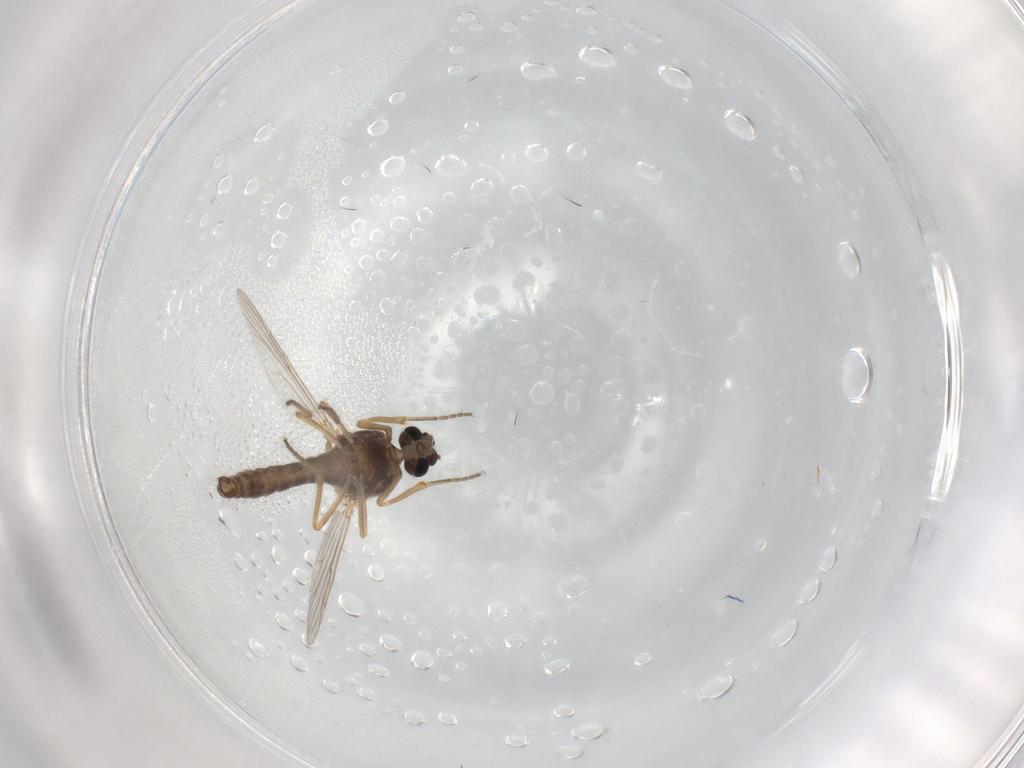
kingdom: Animalia
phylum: Arthropoda
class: Insecta
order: Diptera
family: Ceratopogonidae
